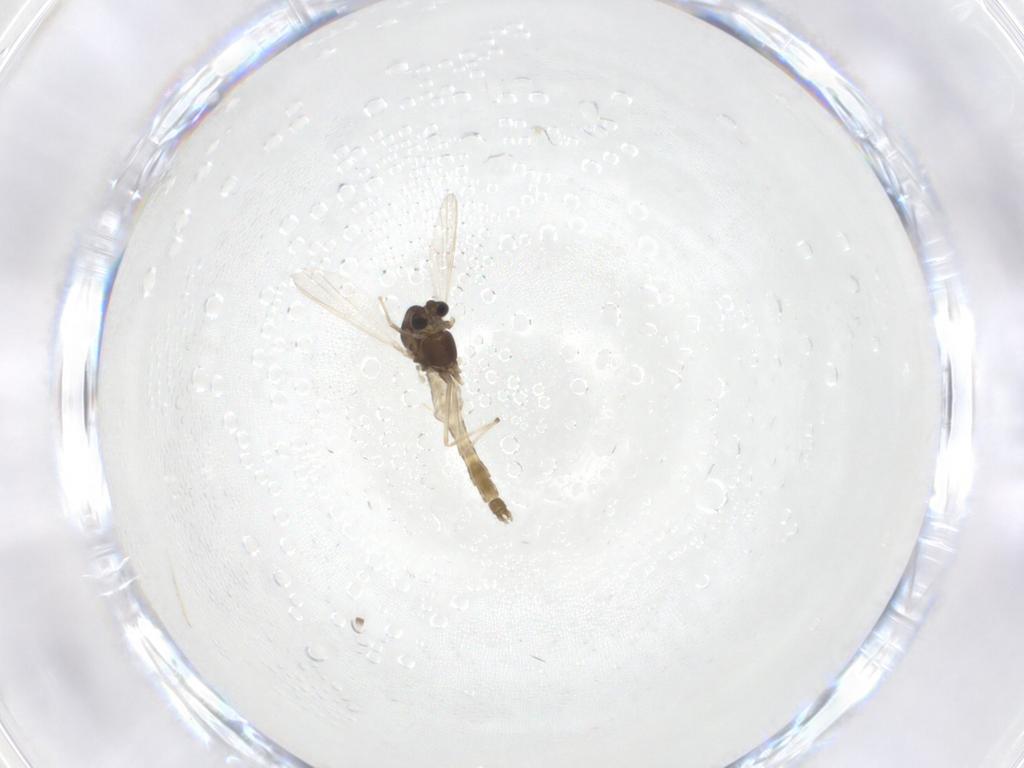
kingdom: Animalia
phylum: Arthropoda
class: Insecta
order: Diptera
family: Chironomidae
